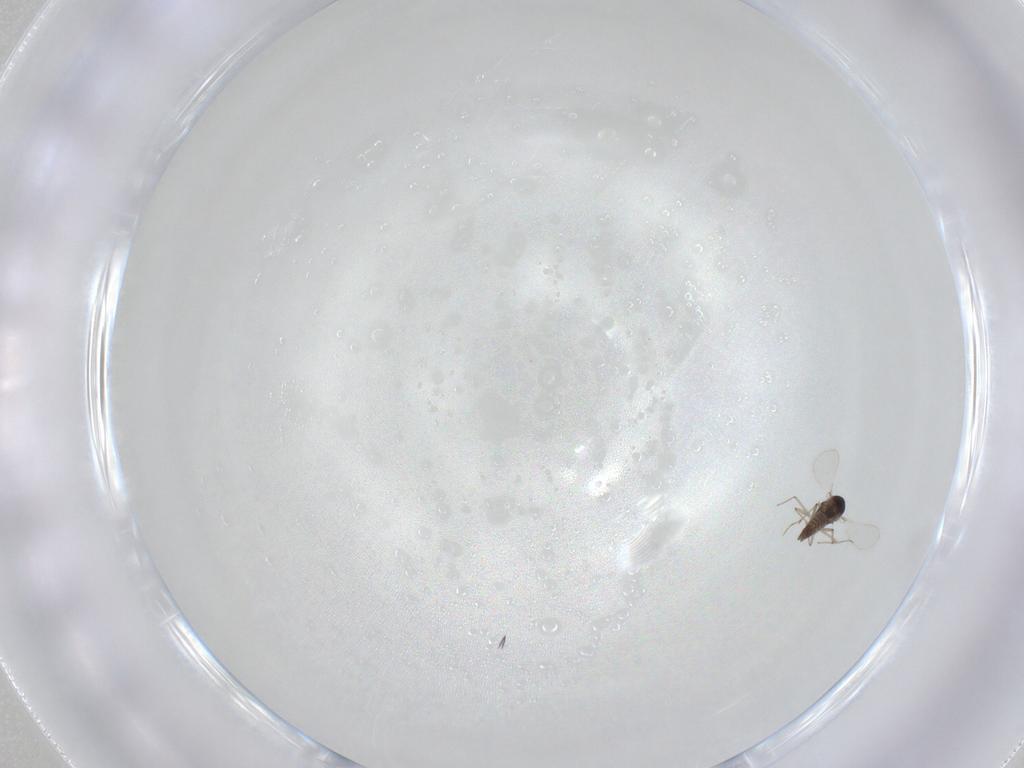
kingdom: Animalia
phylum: Arthropoda
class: Insecta
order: Diptera
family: Chironomidae
